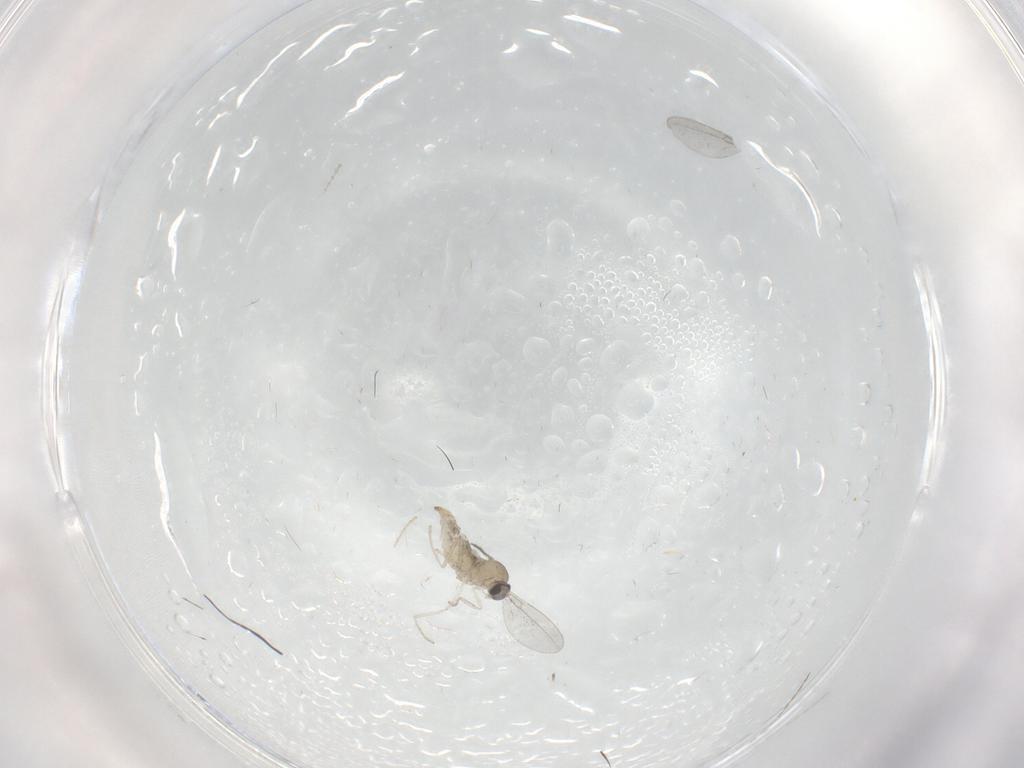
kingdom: Animalia
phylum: Arthropoda
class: Insecta
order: Diptera
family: Cecidomyiidae
